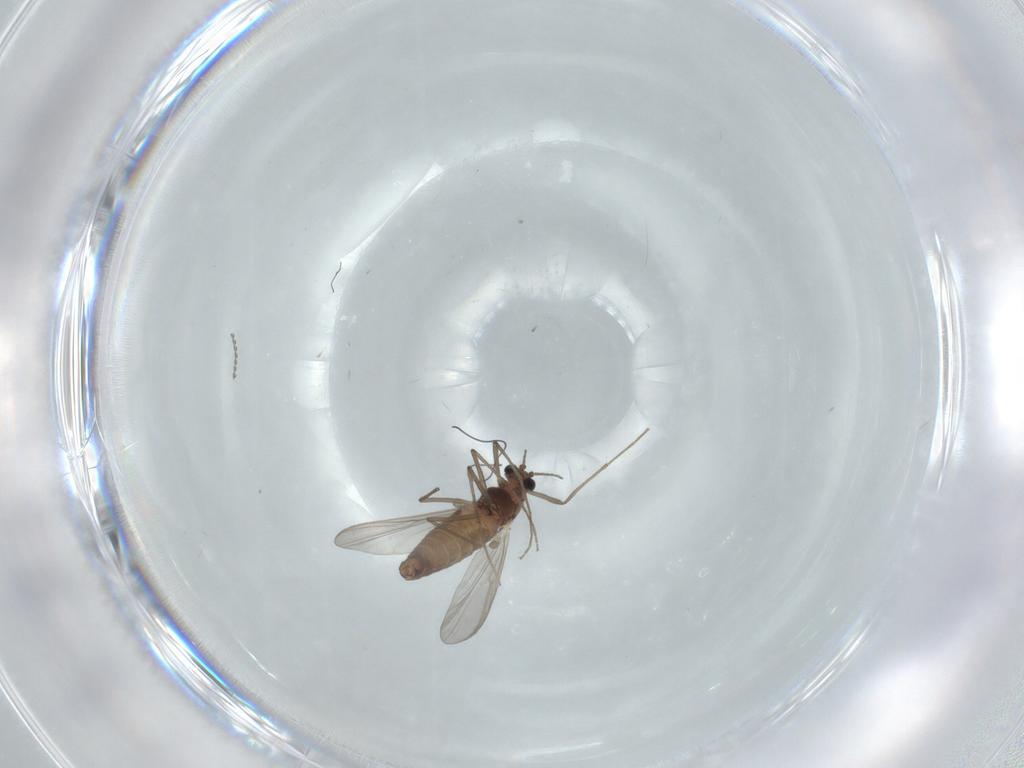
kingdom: Animalia
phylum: Arthropoda
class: Insecta
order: Diptera
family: Chironomidae
